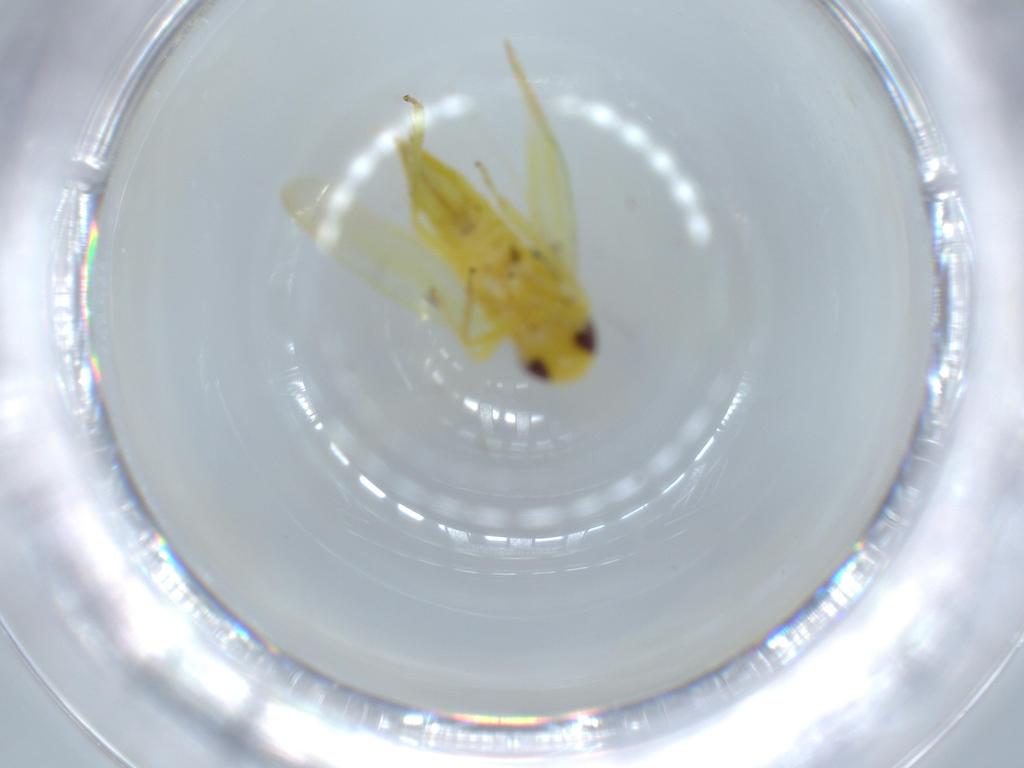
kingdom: Animalia
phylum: Arthropoda
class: Insecta
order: Hemiptera
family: Cicadellidae
